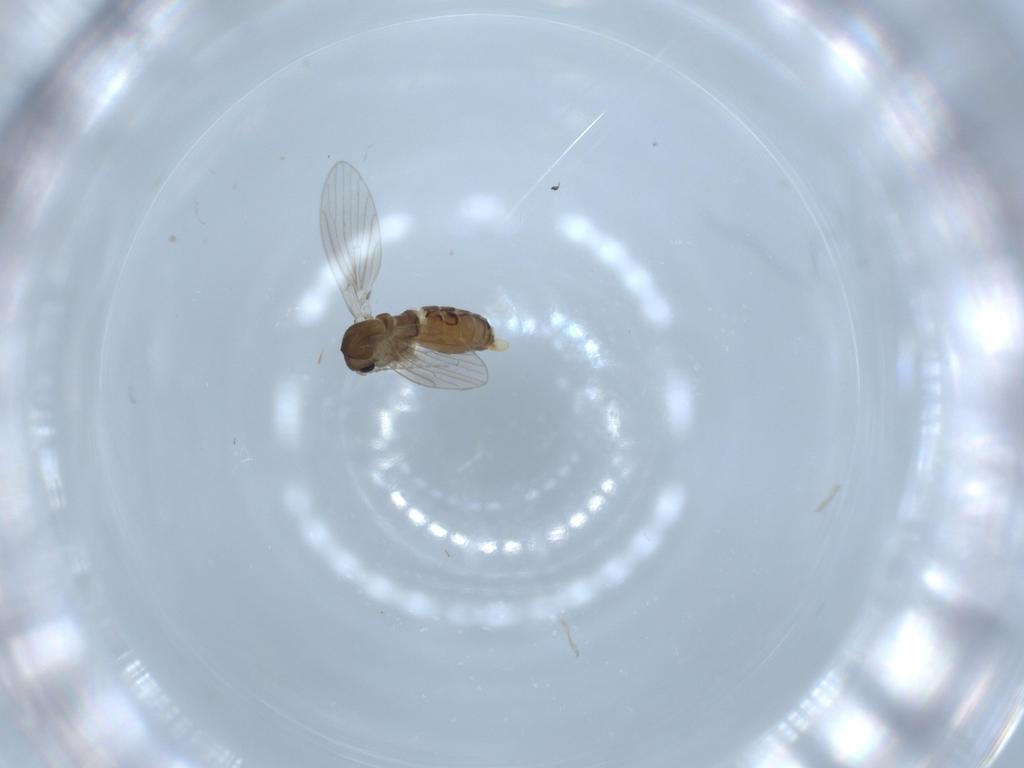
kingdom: Animalia
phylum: Arthropoda
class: Insecta
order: Diptera
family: Psychodidae
